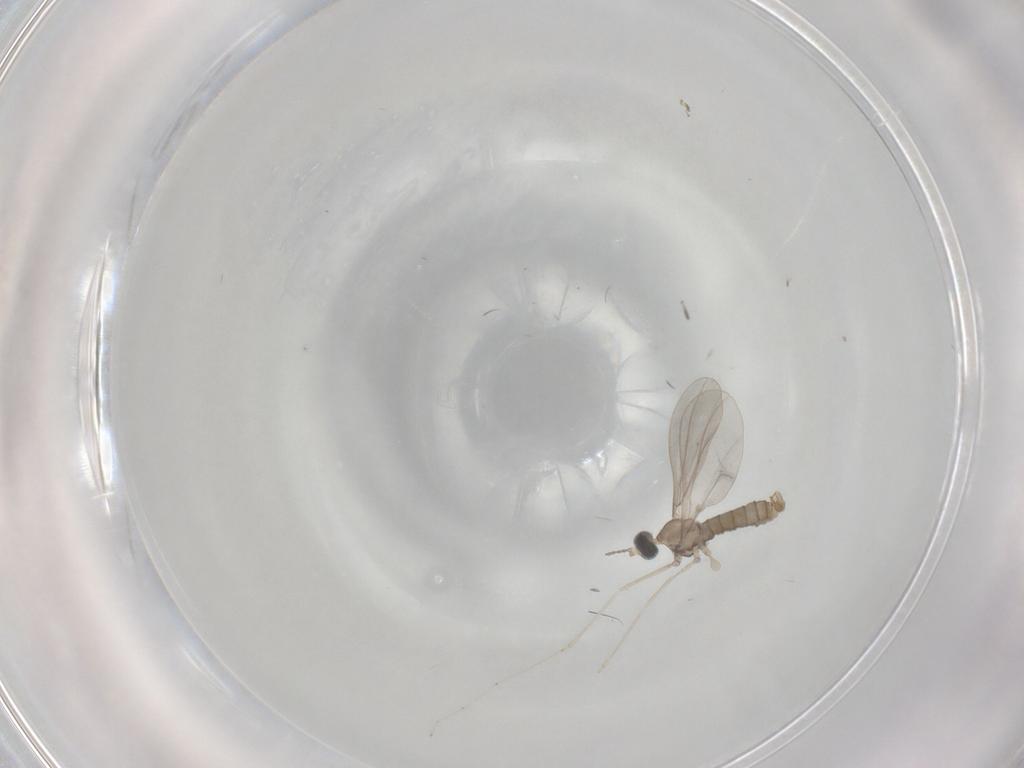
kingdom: Animalia
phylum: Arthropoda
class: Insecta
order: Diptera
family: Cecidomyiidae
